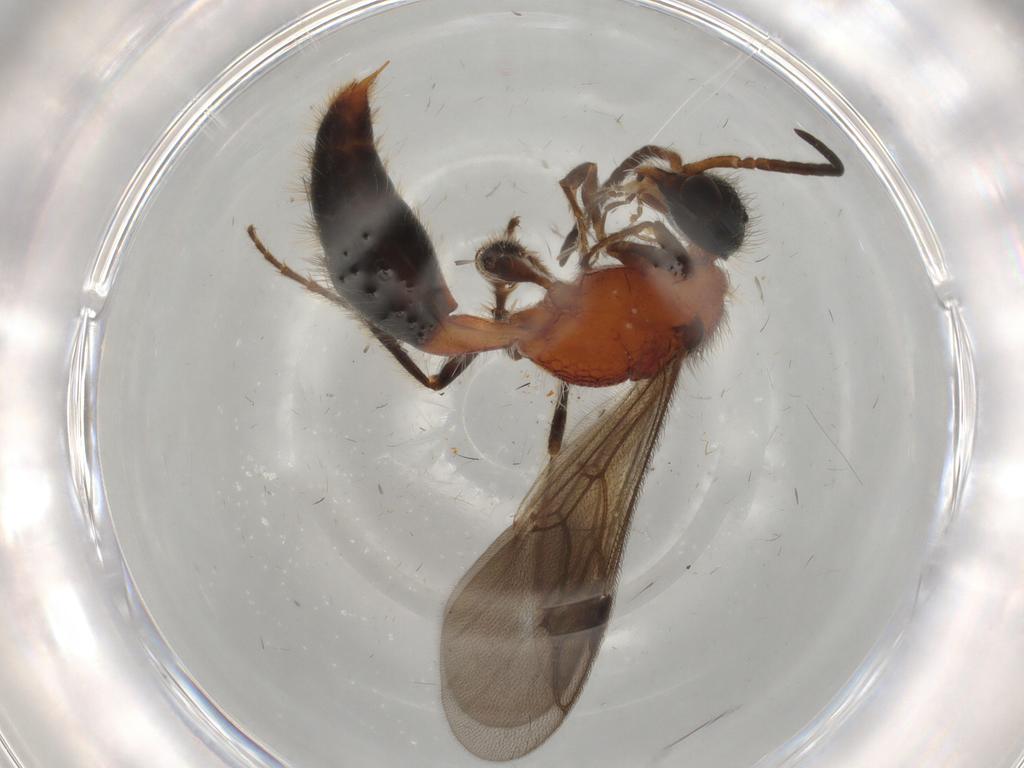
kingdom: Animalia
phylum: Arthropoda
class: Insecta
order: Hymenoptera
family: Mutillidae
